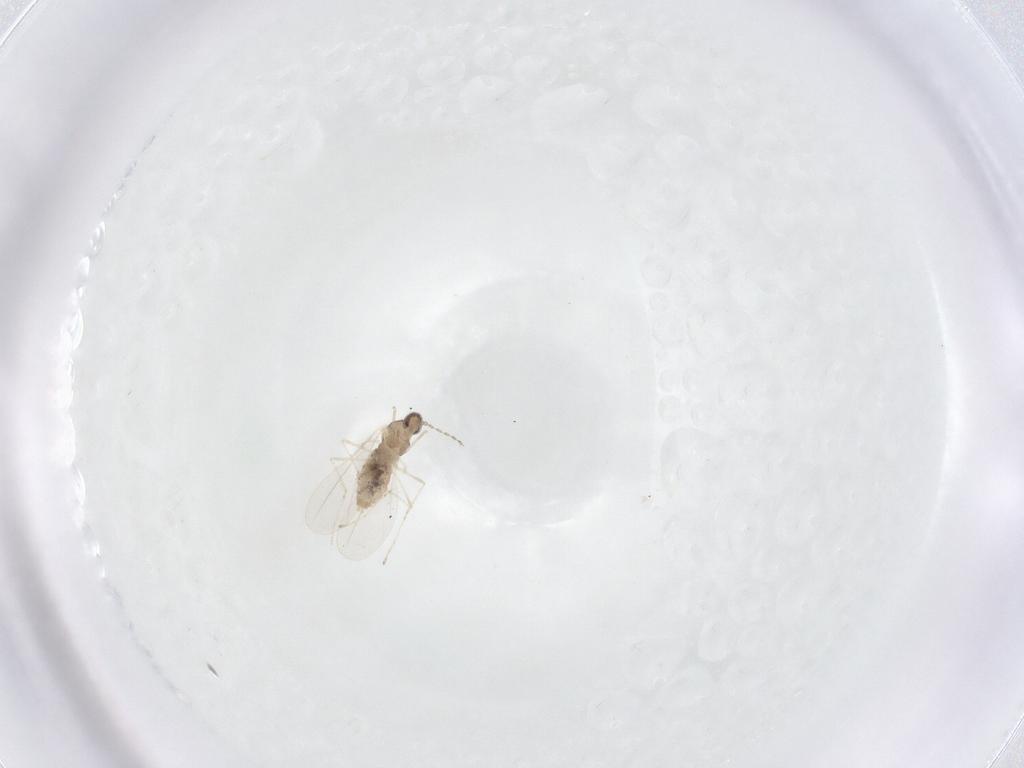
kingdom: Animalia
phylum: Arthropoda
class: Insecta
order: Diptera
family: Cecidomyiidae
